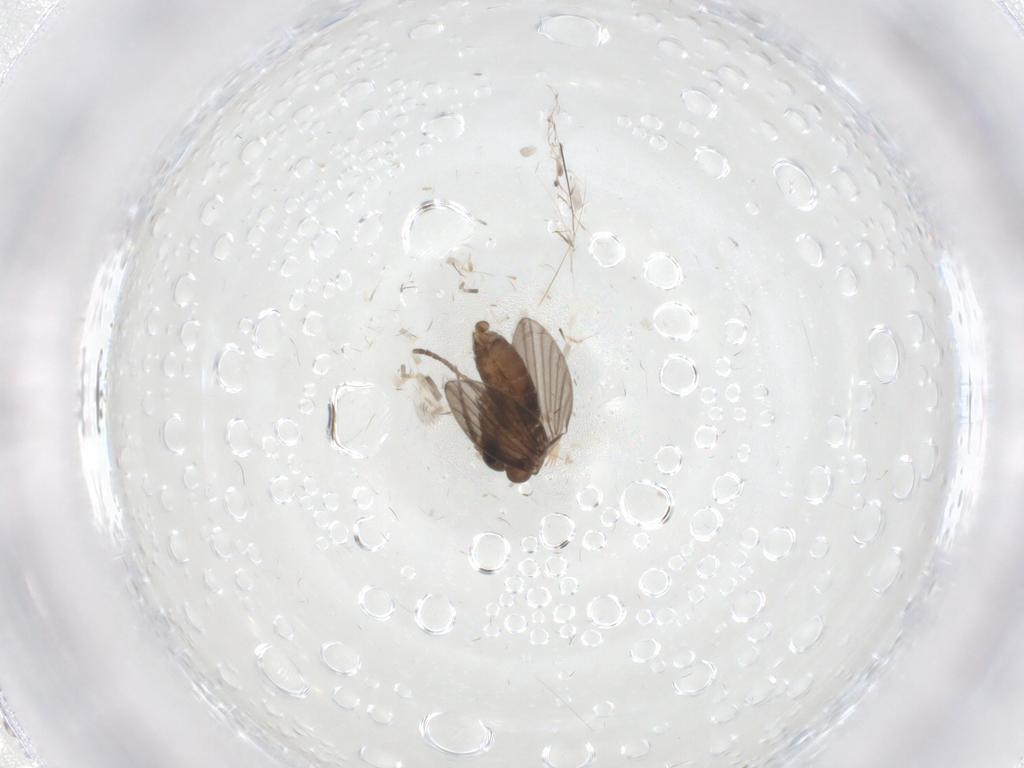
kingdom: Animalia
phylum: Arthropoda
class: Insecta
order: Diptera
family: Psychodidae
